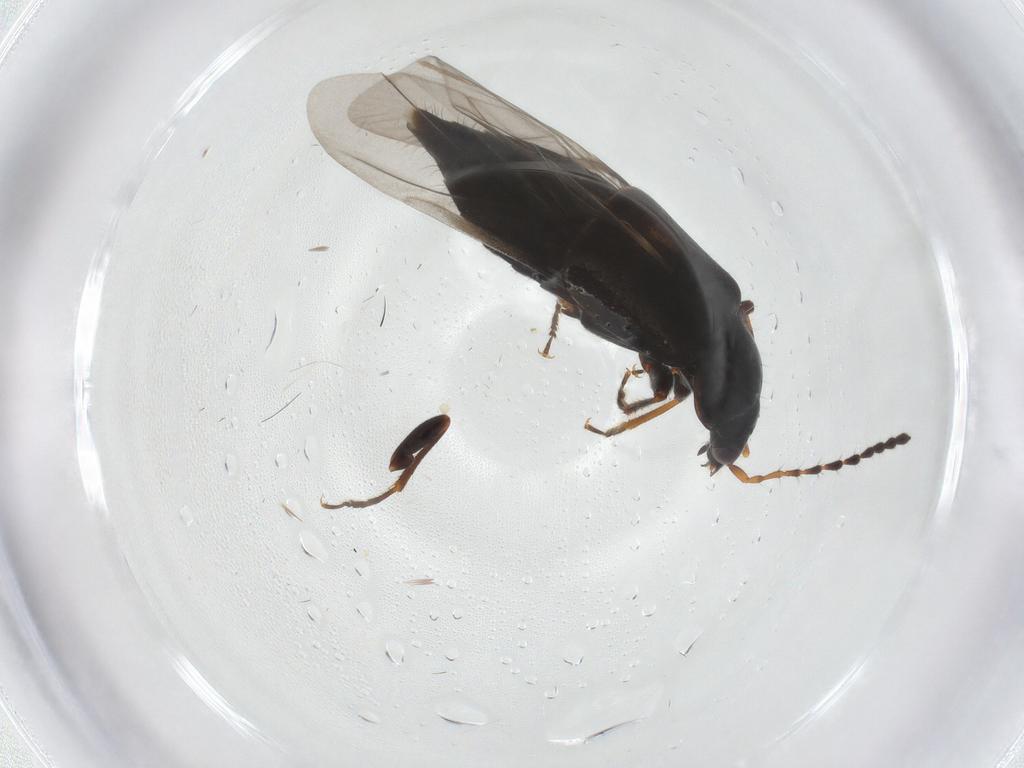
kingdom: Animalia
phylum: Arthropoda
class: Insecta
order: Coleoptera
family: Staphylinidae
